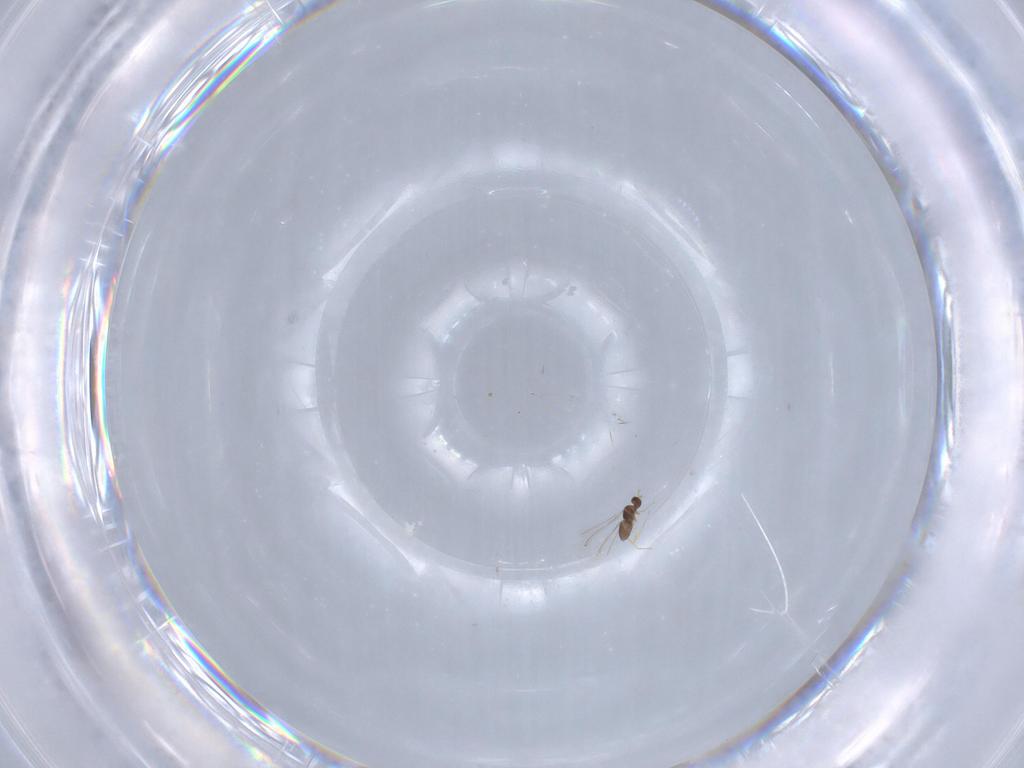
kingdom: Animalia
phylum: Arthropoda
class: Insecta
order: Hymenoptera
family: Mymaridae
